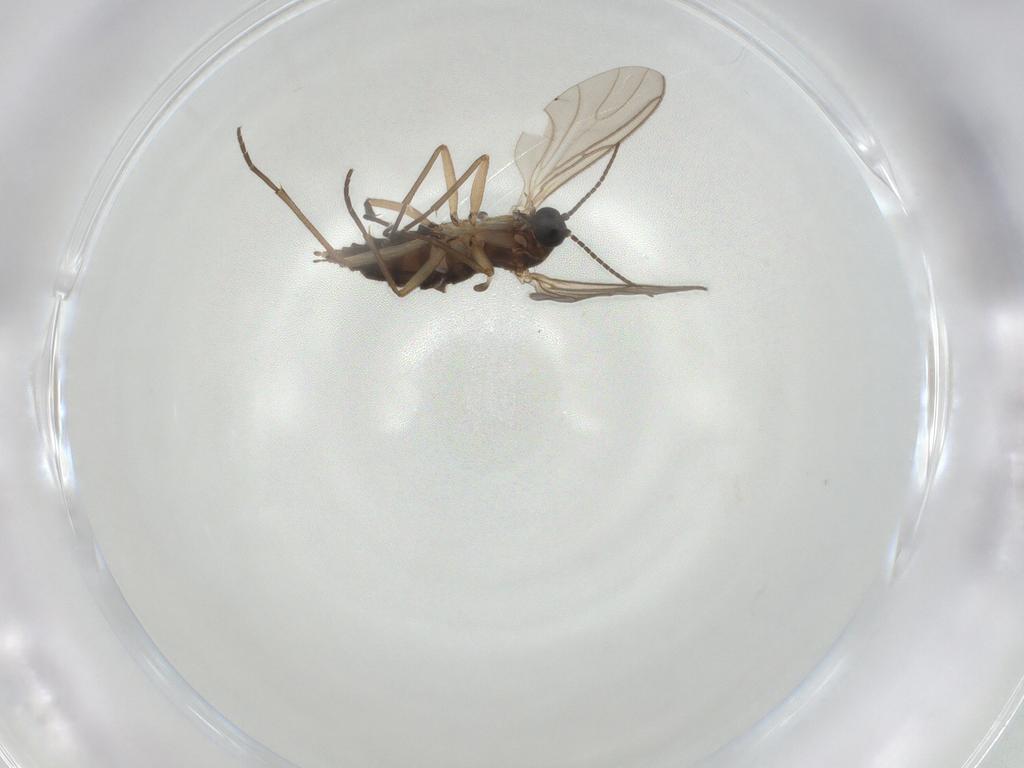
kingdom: Animalia
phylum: Arthropoda
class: Insecta
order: Diptera
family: Sciaridae
